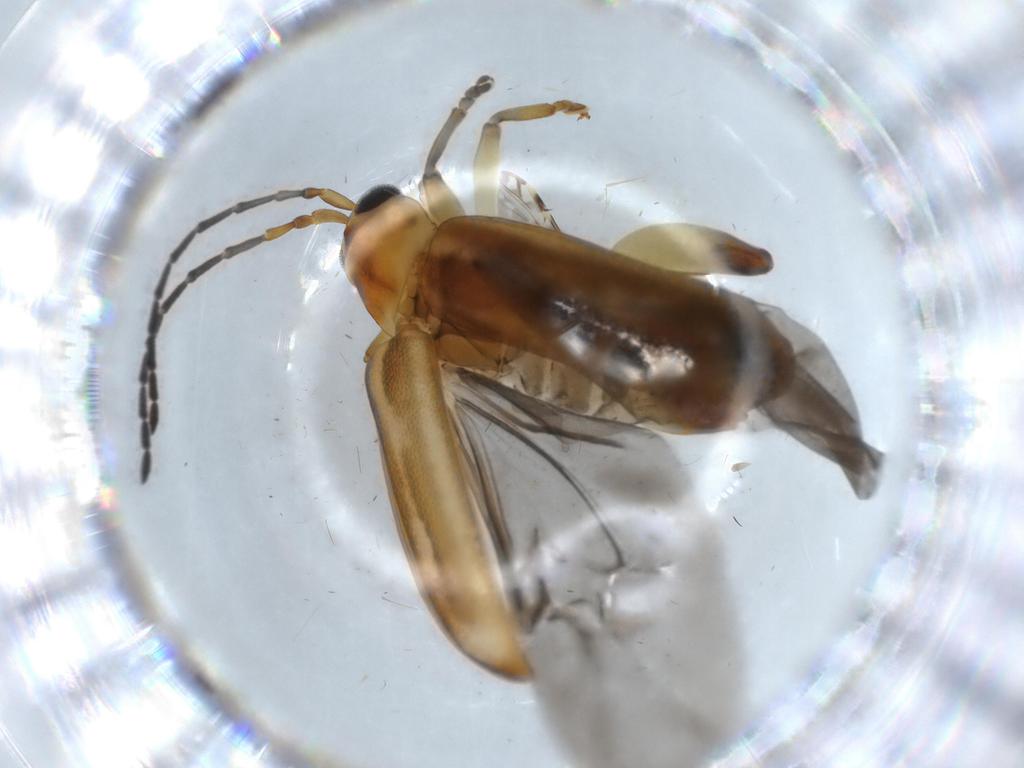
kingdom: Animalia
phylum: Arthropoda
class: Insecta
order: Coleoptera
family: Chrysomelidae
